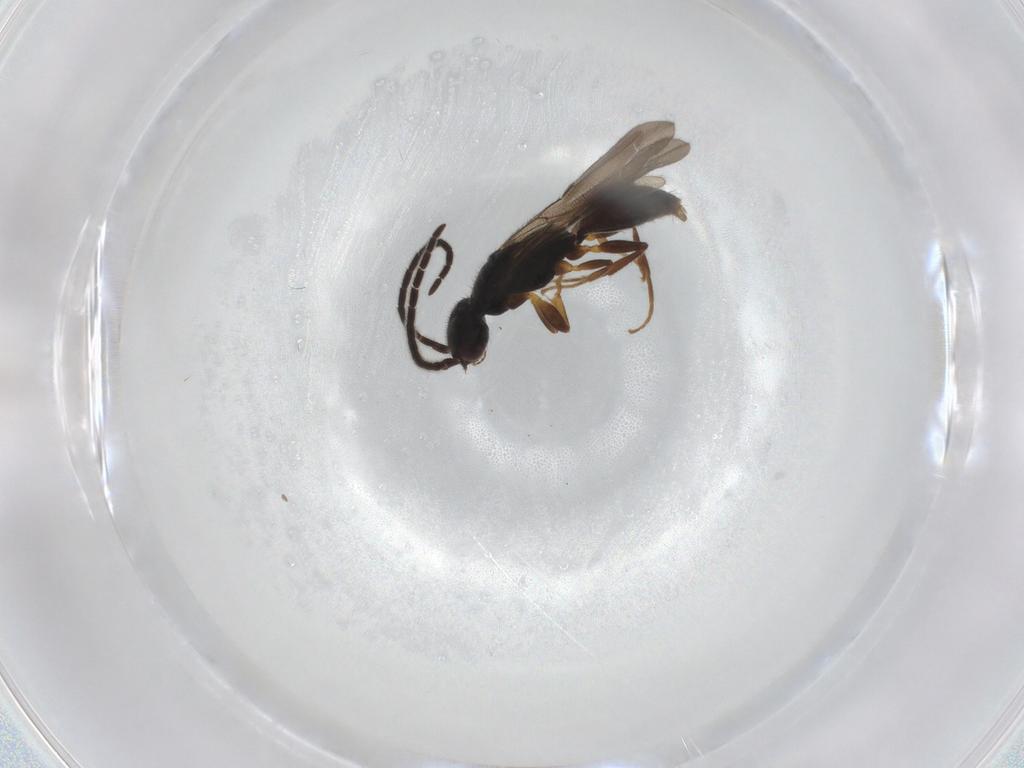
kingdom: Animalia
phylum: Arthropoda
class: Insecta
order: Hymenoptera
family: Bethylidae
